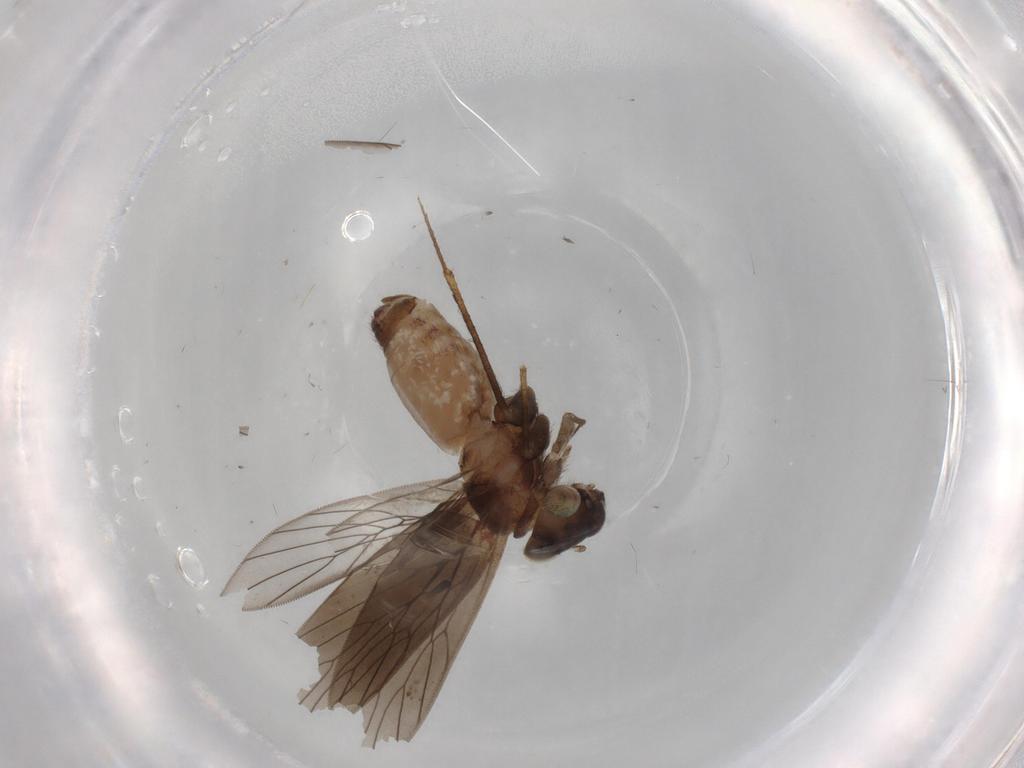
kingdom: Animalia
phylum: Arthropoda
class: Insecta
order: Psocodea
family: Lepidopsocidae
